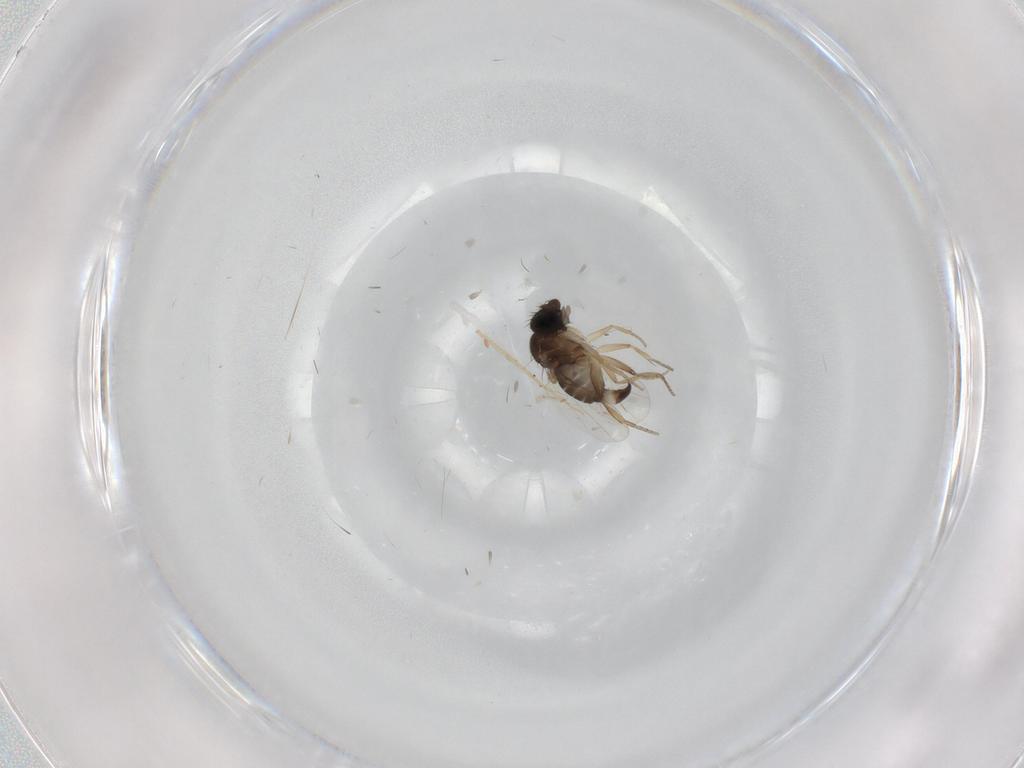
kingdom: Animalia
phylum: Arthropoda
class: Insecta
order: Diptera
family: Phoridae
